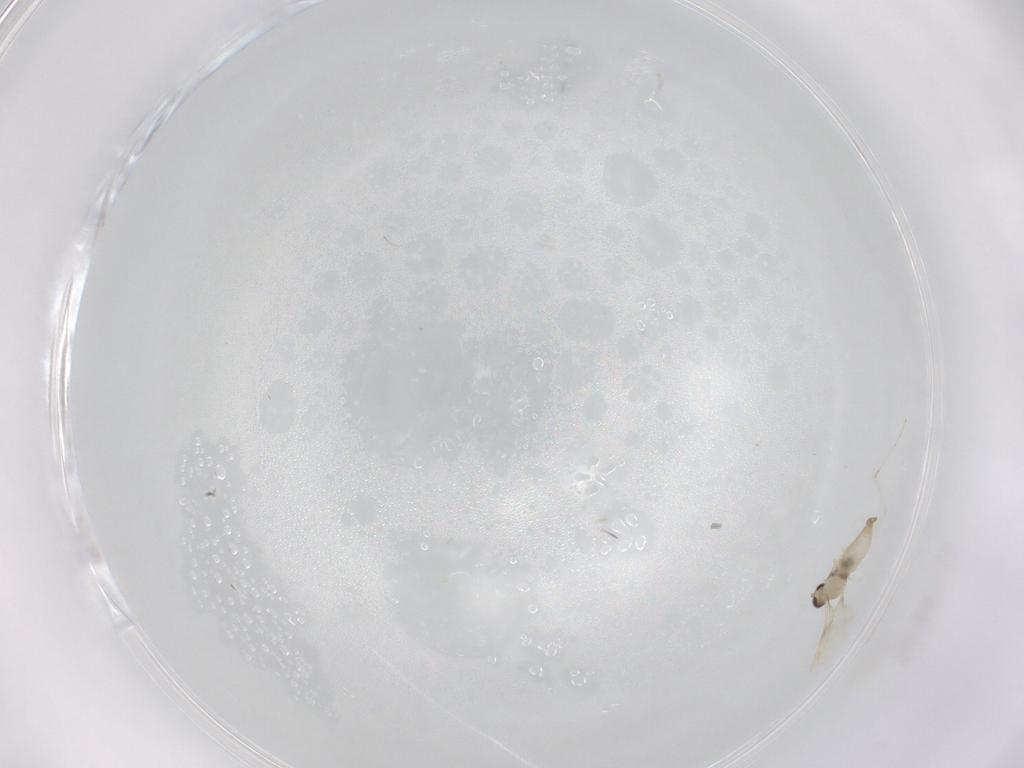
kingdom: Animalia
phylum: Arthropoda
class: Insecta
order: Diptera
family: Cecidomyiidae
